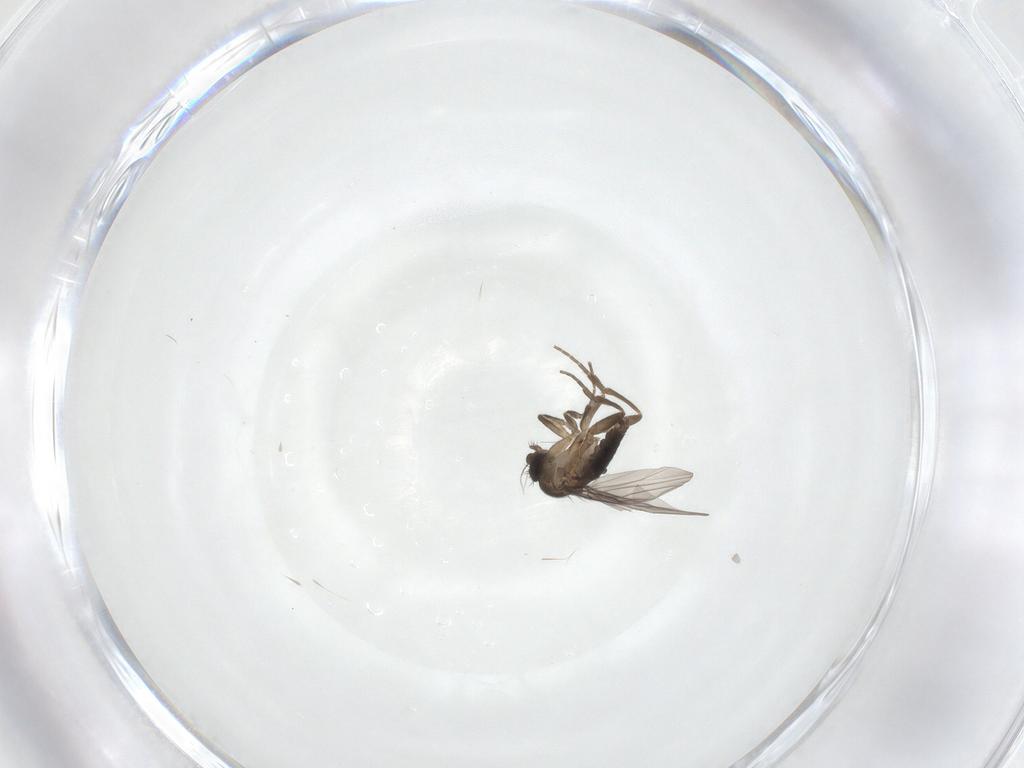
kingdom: Animalia
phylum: Arthropoda
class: Insecta
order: Diptera
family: Phoridae
